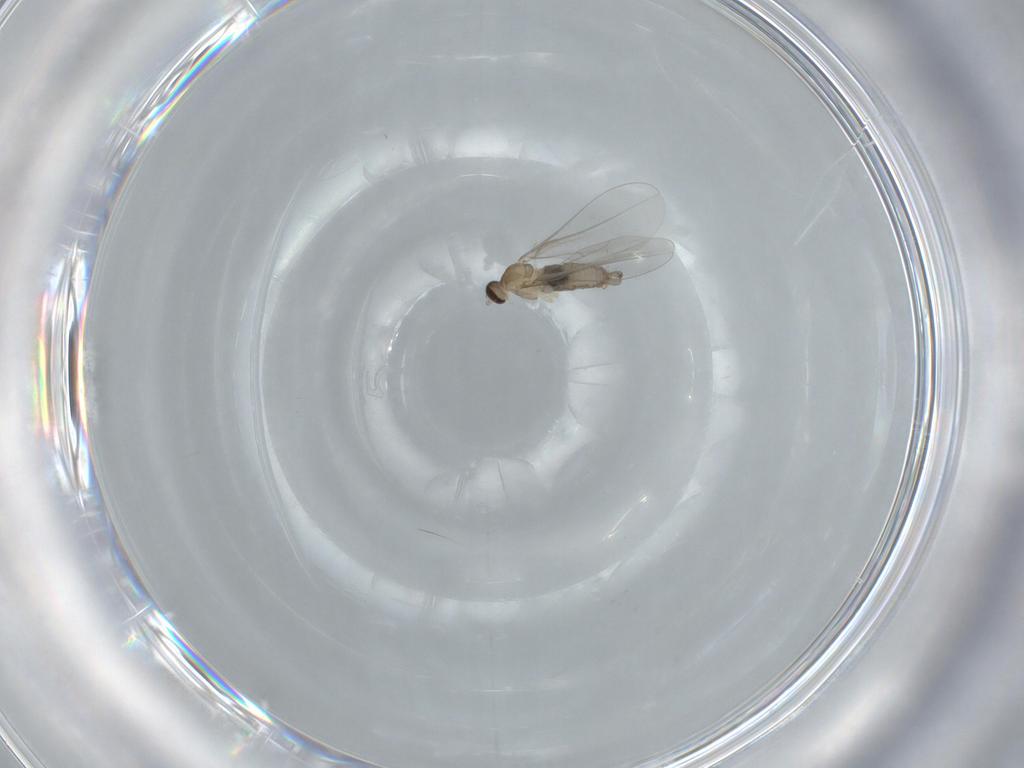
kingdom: Animalia
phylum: Arthropoda
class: Insecta
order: Diptera
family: Cecidomyiidae
